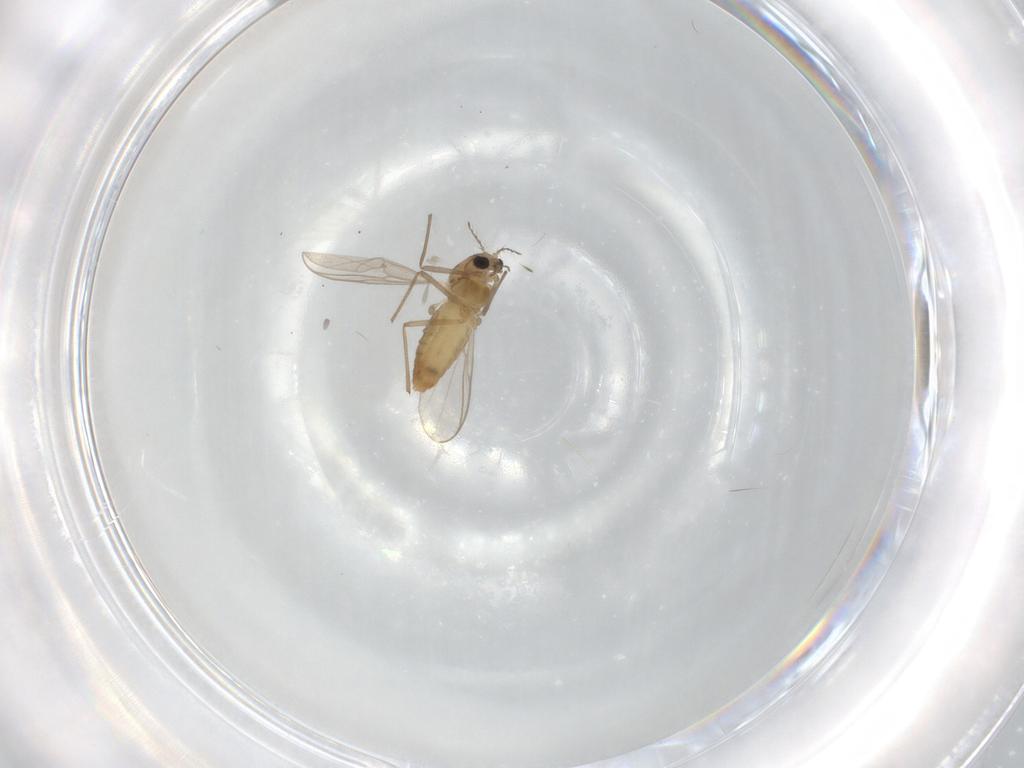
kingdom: Animalia
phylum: Arthropoda
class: Insecta
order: Diptera
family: Chironomidae
